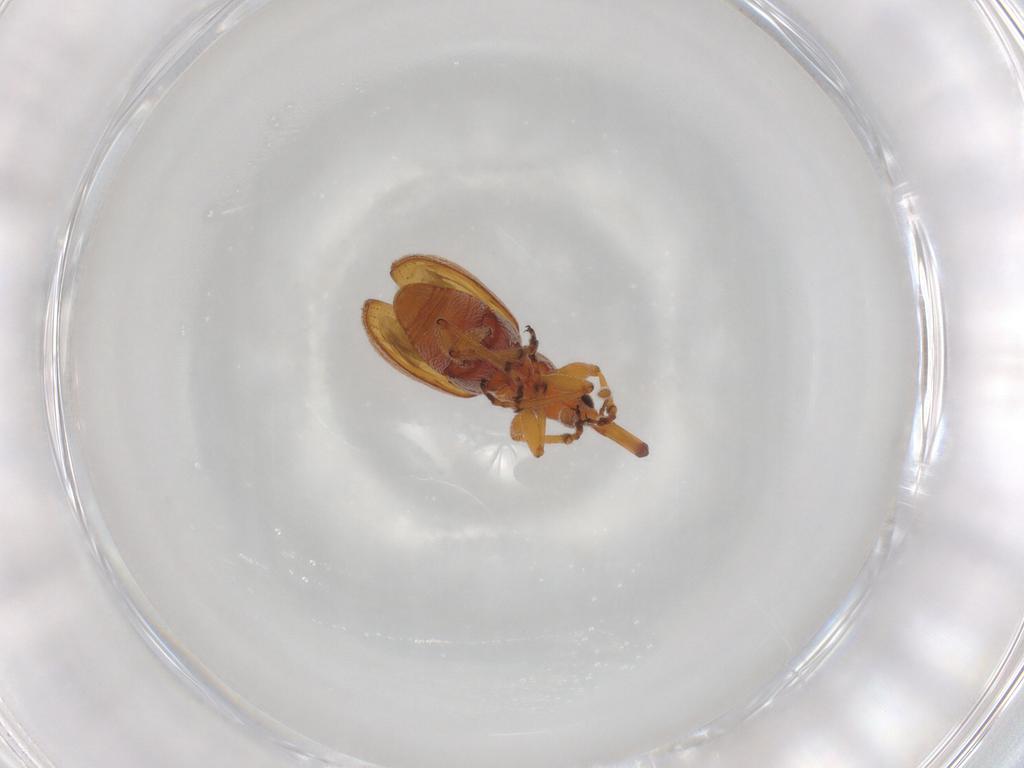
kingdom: Animalia
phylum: Arthropoda
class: Insecta
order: Coleoptera
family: Brentidae
